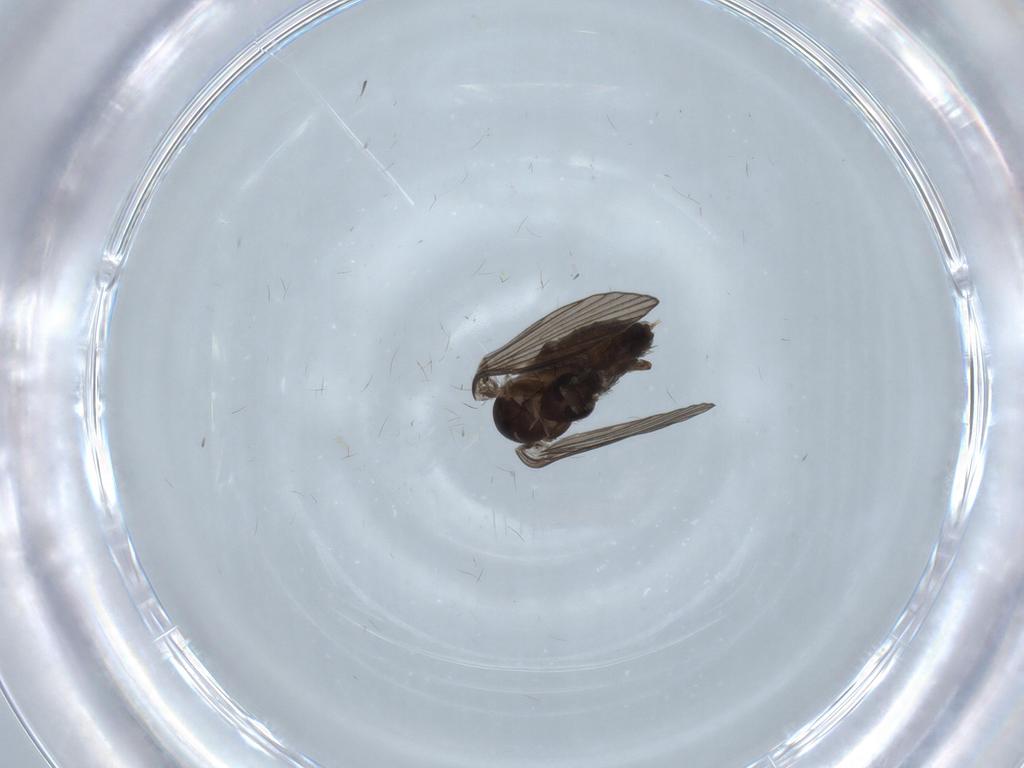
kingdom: Animalia
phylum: Arthropoda
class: Insecta
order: Diptera
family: Psychodidae
